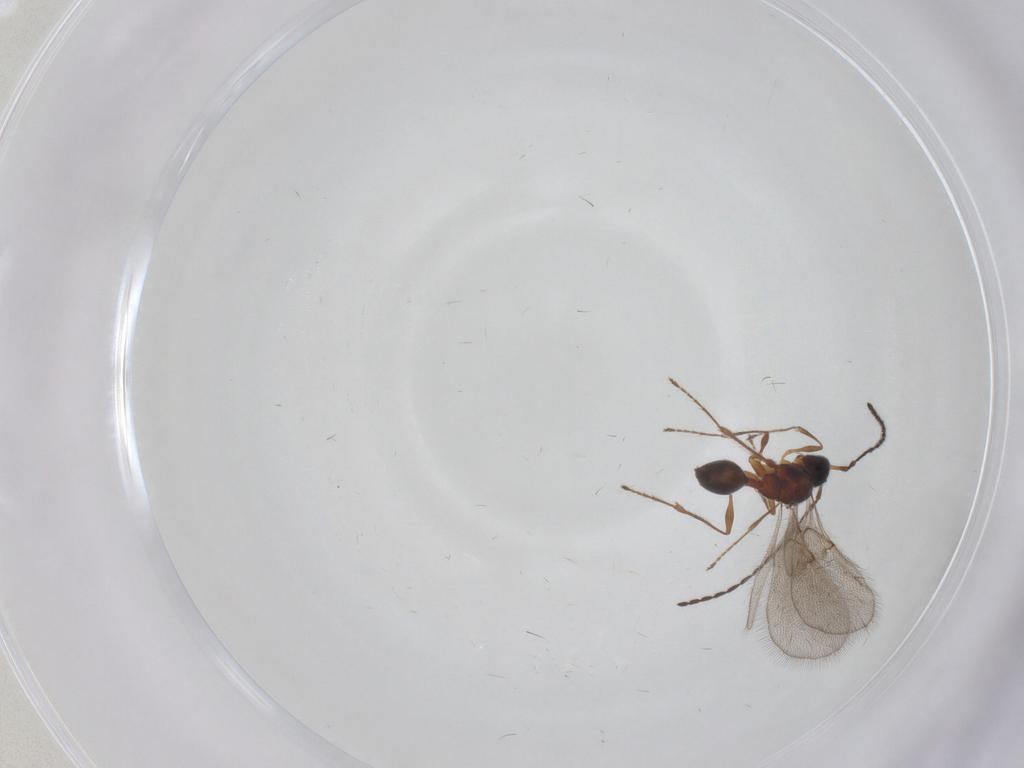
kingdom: Animalia
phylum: Arthropoda
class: Insecta
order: Hymenoptera
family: Diapriidae
